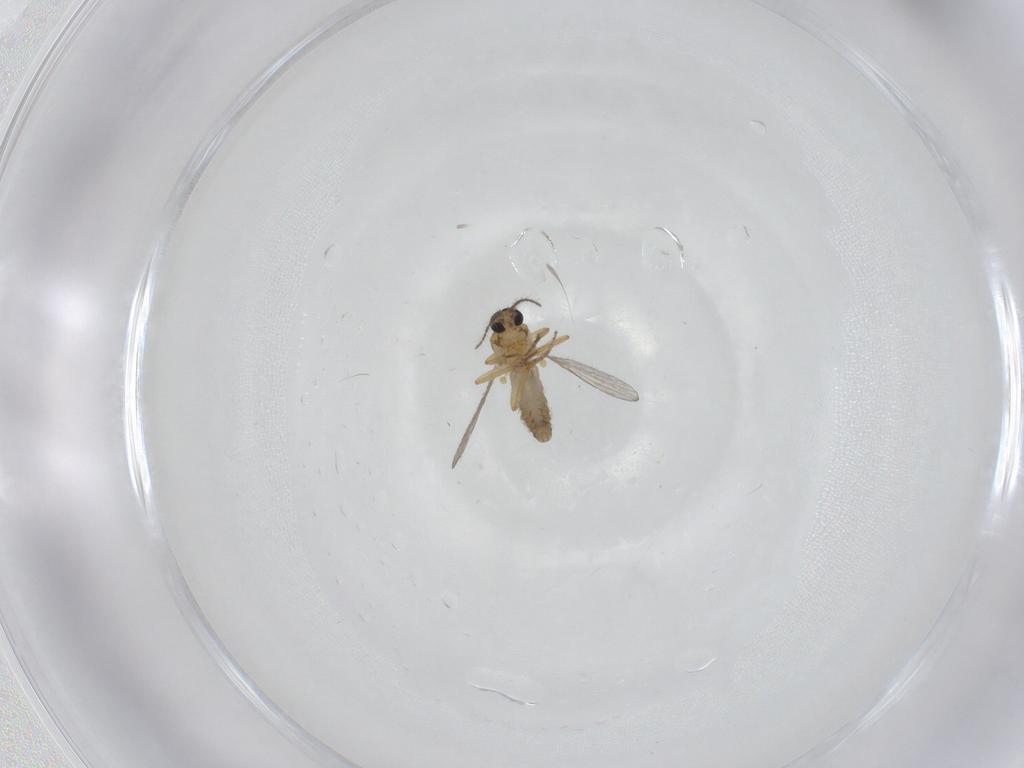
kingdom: Animalia
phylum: Arthropoda
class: Insecta
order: Diptera
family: Ceratopogonidae
